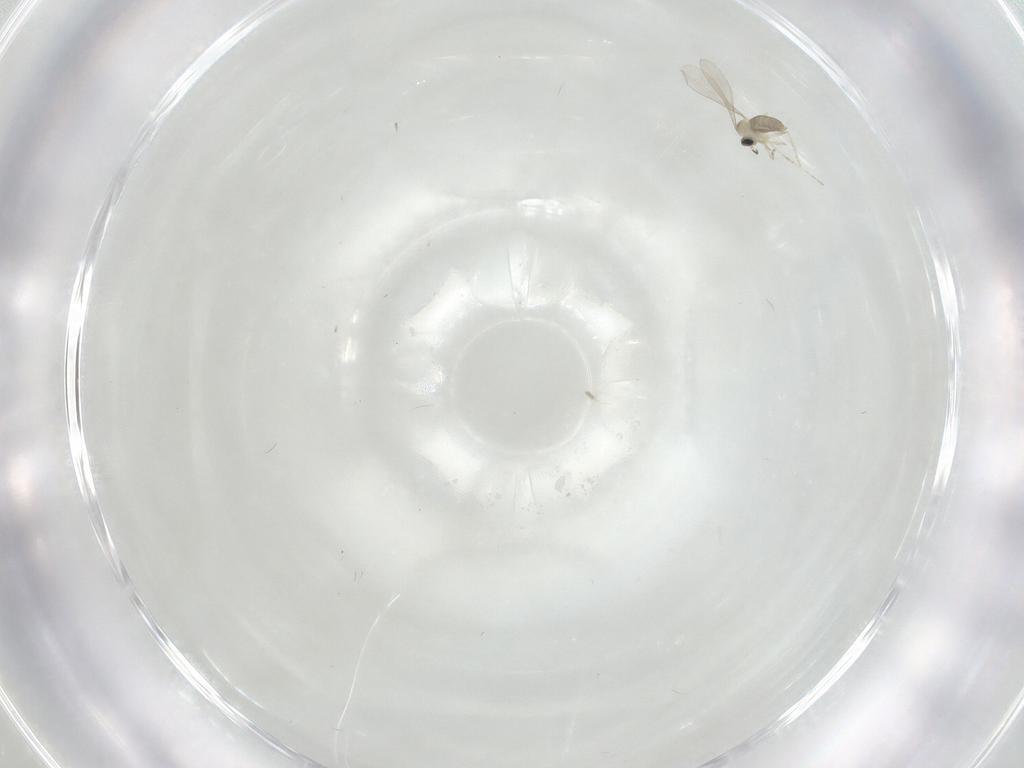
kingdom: Animalia
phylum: Arthropoda
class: Insecta
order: Diptera
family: Cecidomyiidae
